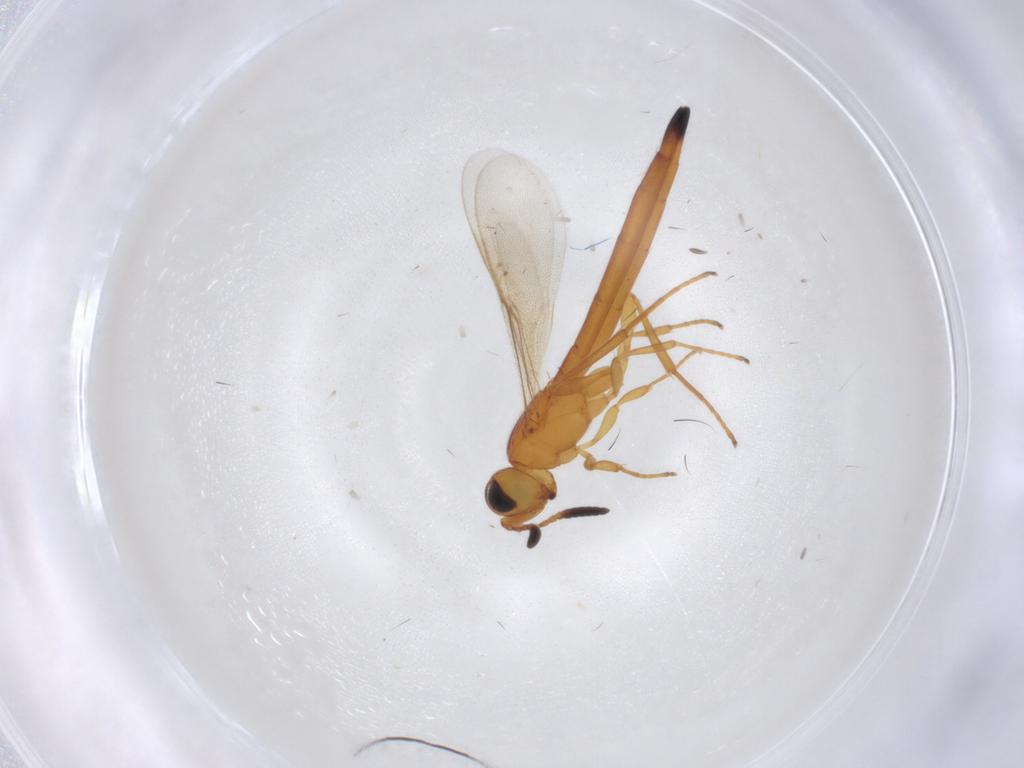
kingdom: Animalia
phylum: Arthropoda
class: Insecta
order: Hymenoptera
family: Scelionidae
